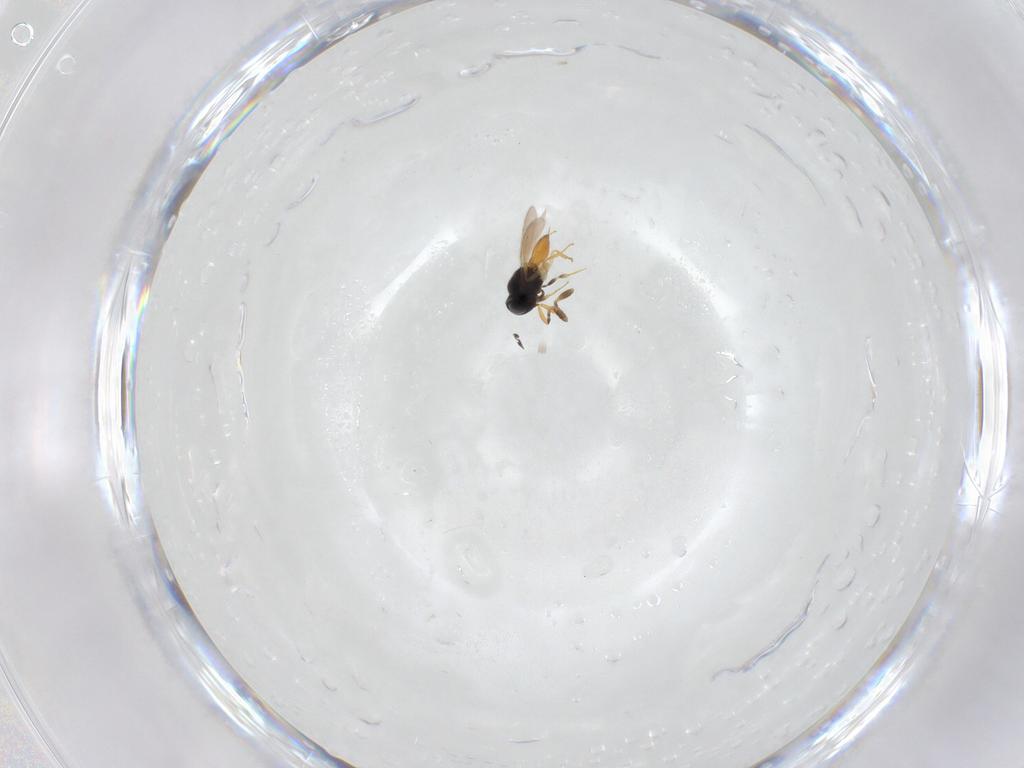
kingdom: Animalia
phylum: Arthropoda
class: Insecta
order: Hymenoptera
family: Scelionidae
